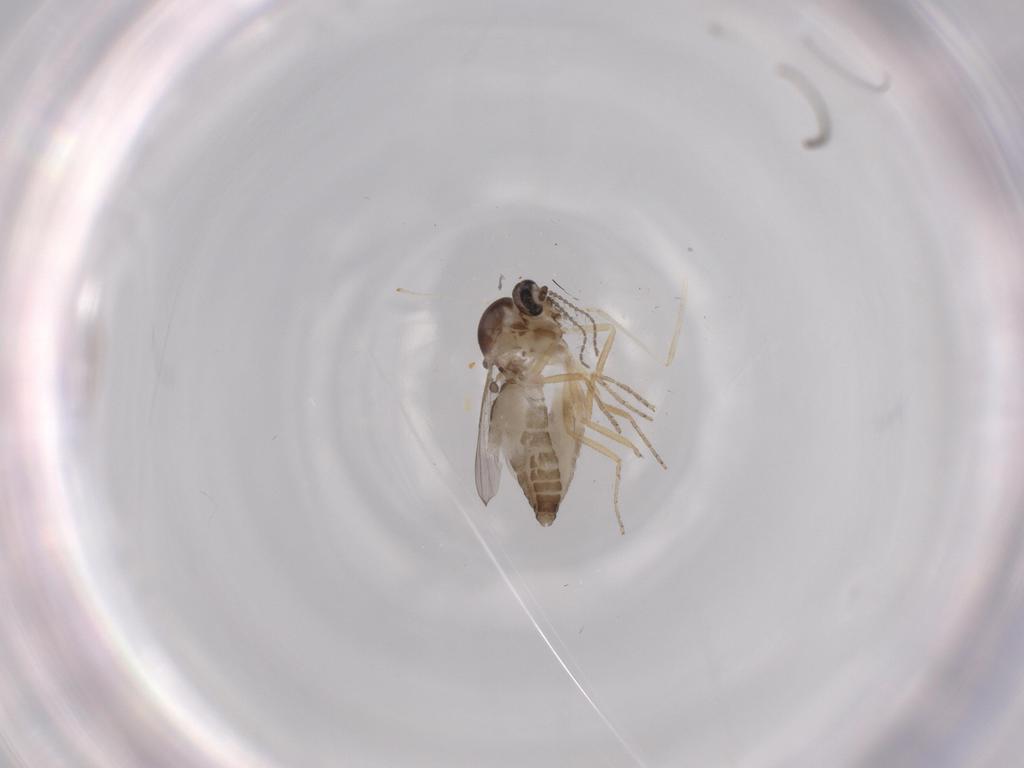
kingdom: Animalia
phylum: Arthropoda
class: Insecta
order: Diptera
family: Ceratopogonidae
